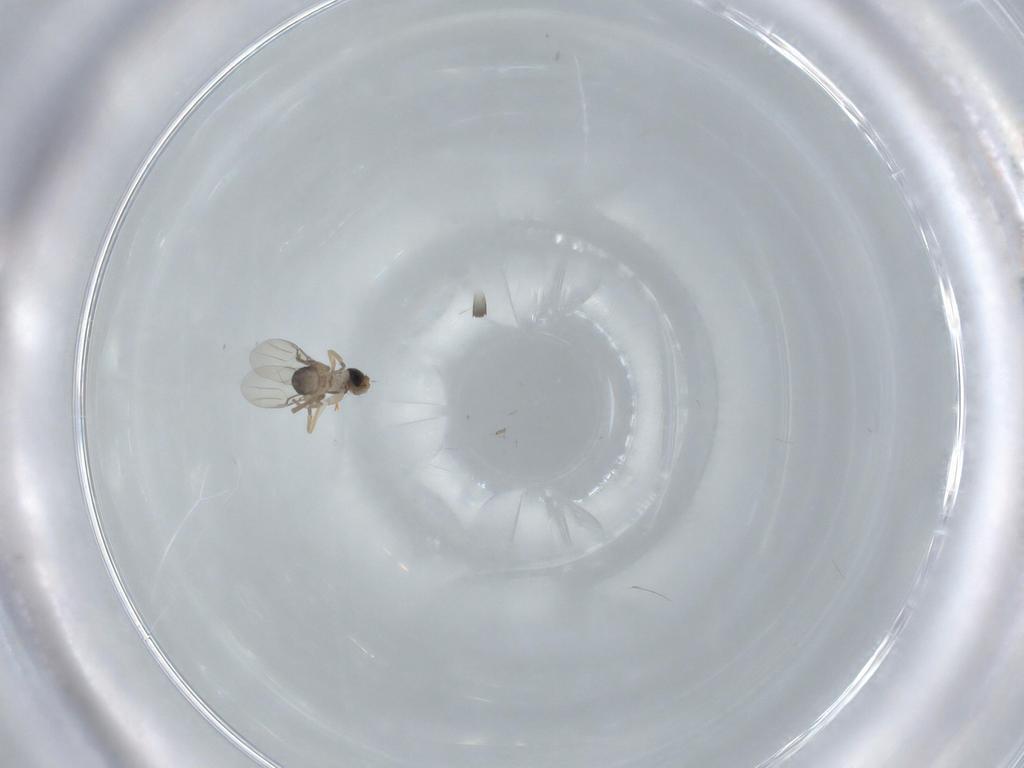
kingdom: Animalia
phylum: Arthropoda
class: Insecta
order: Diptera
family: Phoridae
